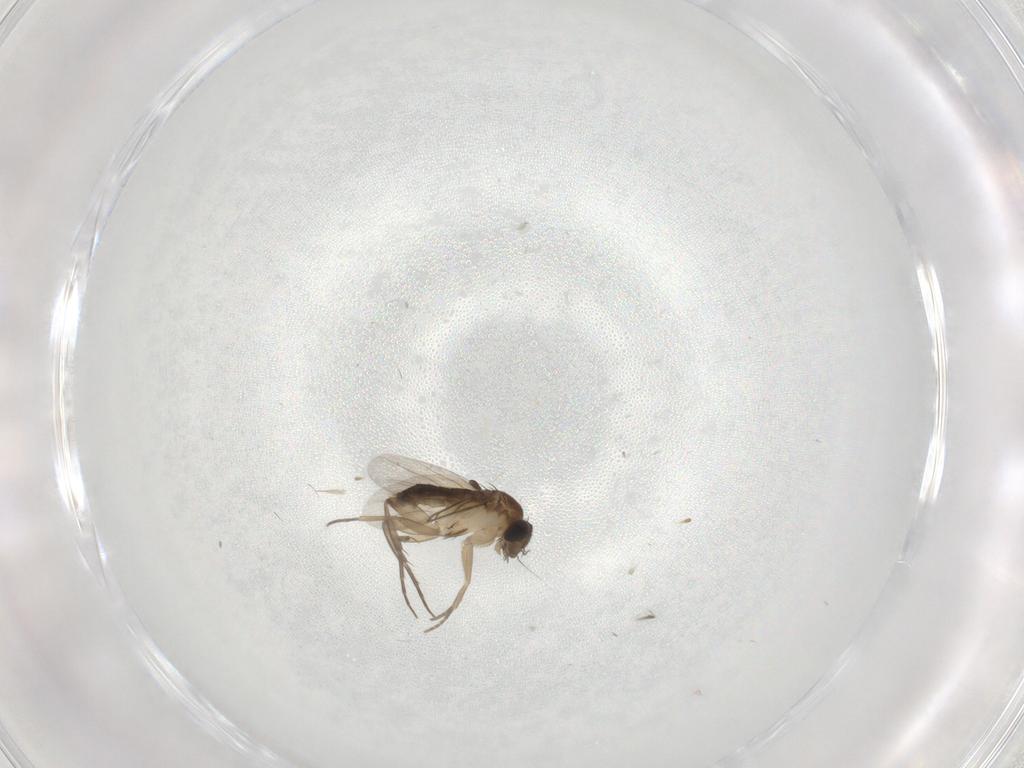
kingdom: Animalia
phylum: Arthropoda
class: Insecta
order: Diptera
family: Phoridae
